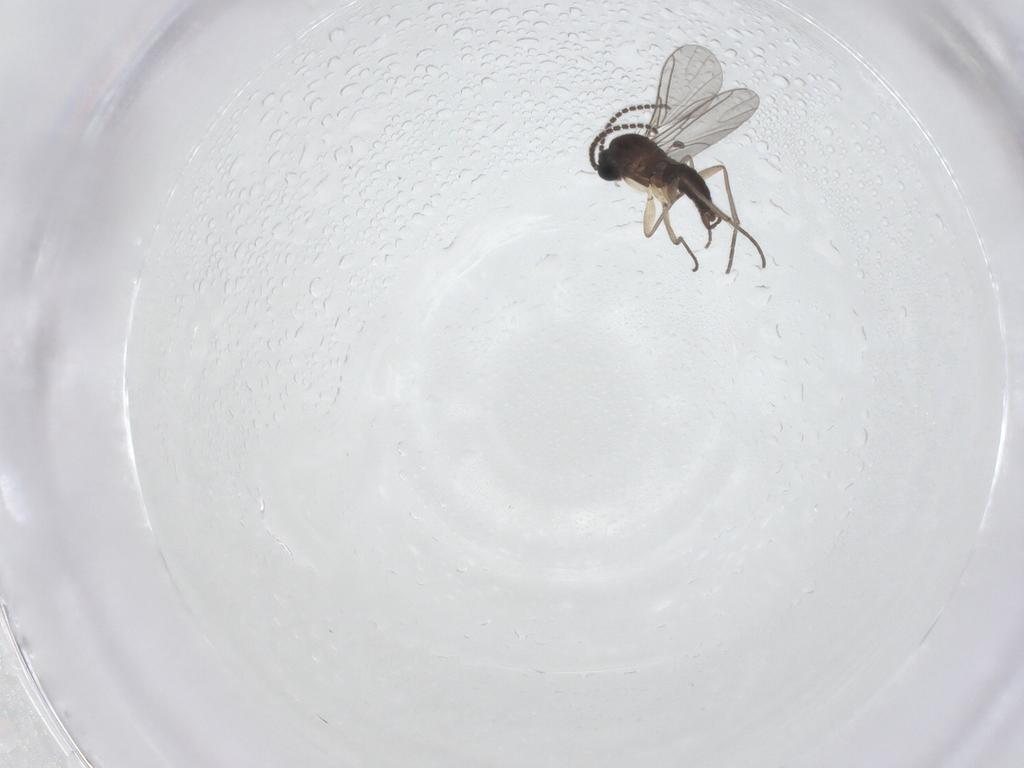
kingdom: Animalia
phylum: Arthropoda
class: Insecta
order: Diptera
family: Sciaridae
